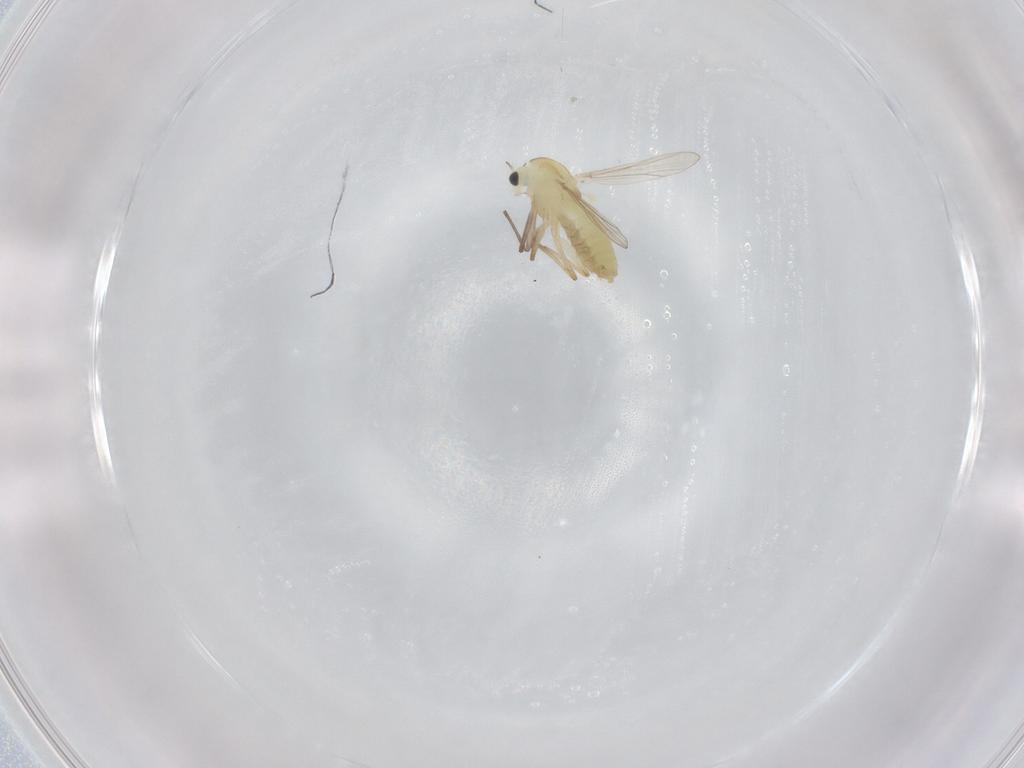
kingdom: Animalia
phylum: Arthropoda
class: Insecta
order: Diptera
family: Chironomidae
